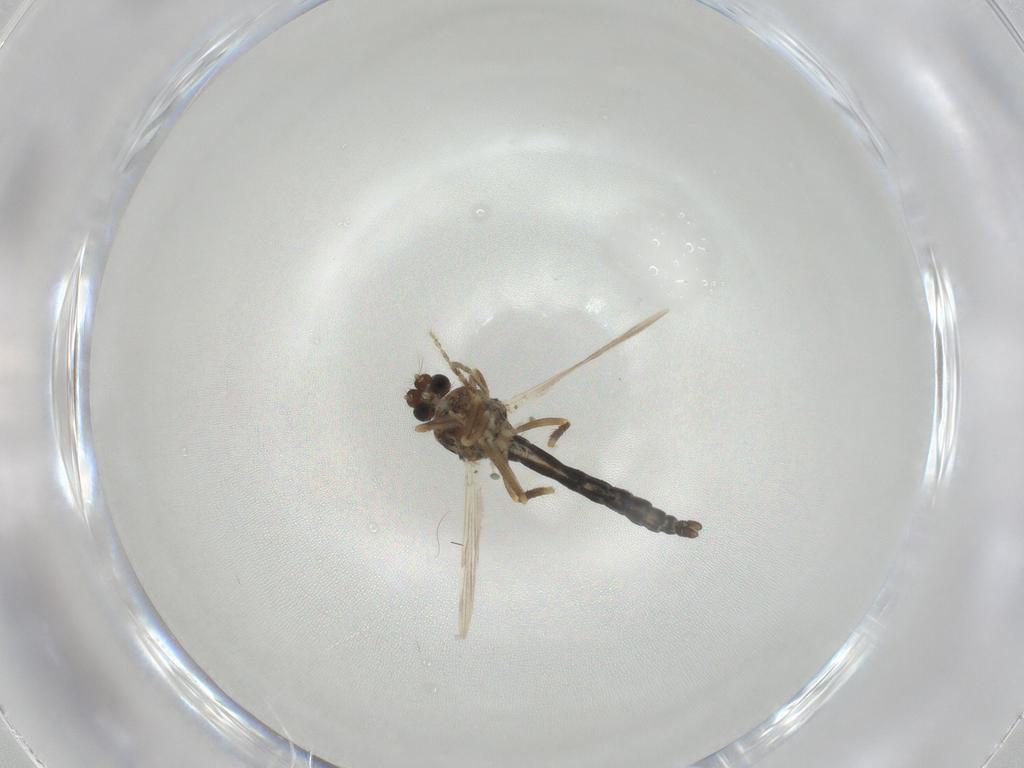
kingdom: Animalia
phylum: Arthropoda
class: Insecta
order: Diptera
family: Ceratopogonidae
